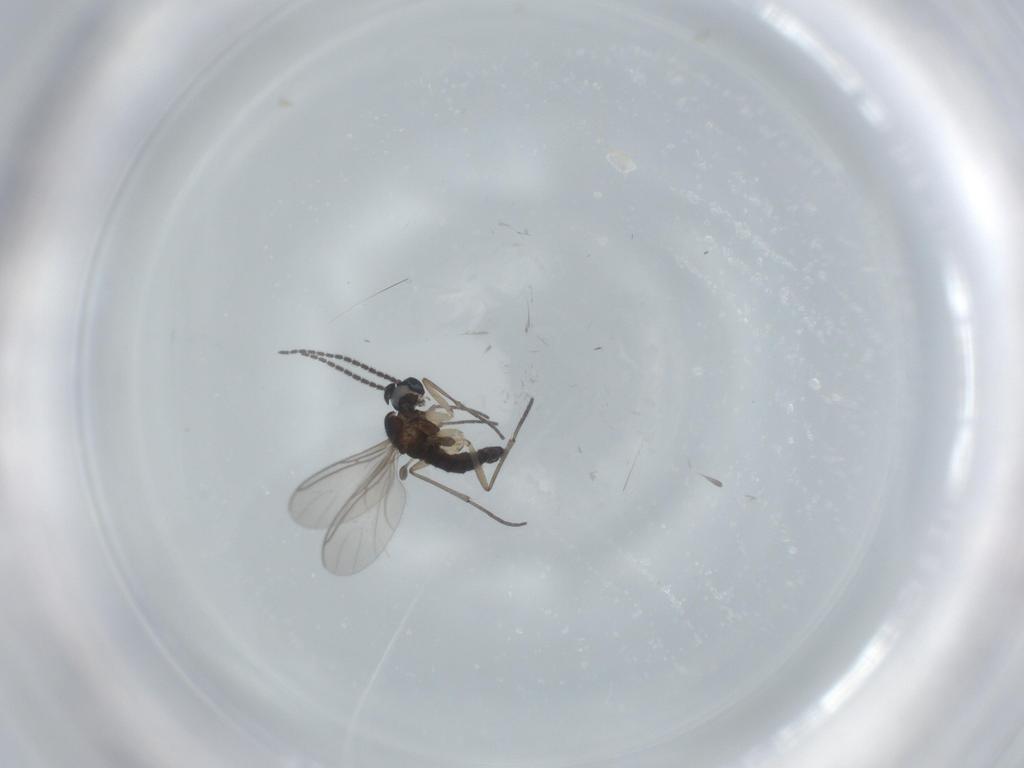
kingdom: Animalia
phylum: Arthropoda
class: Insecta
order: Diptera
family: Sciaridae
